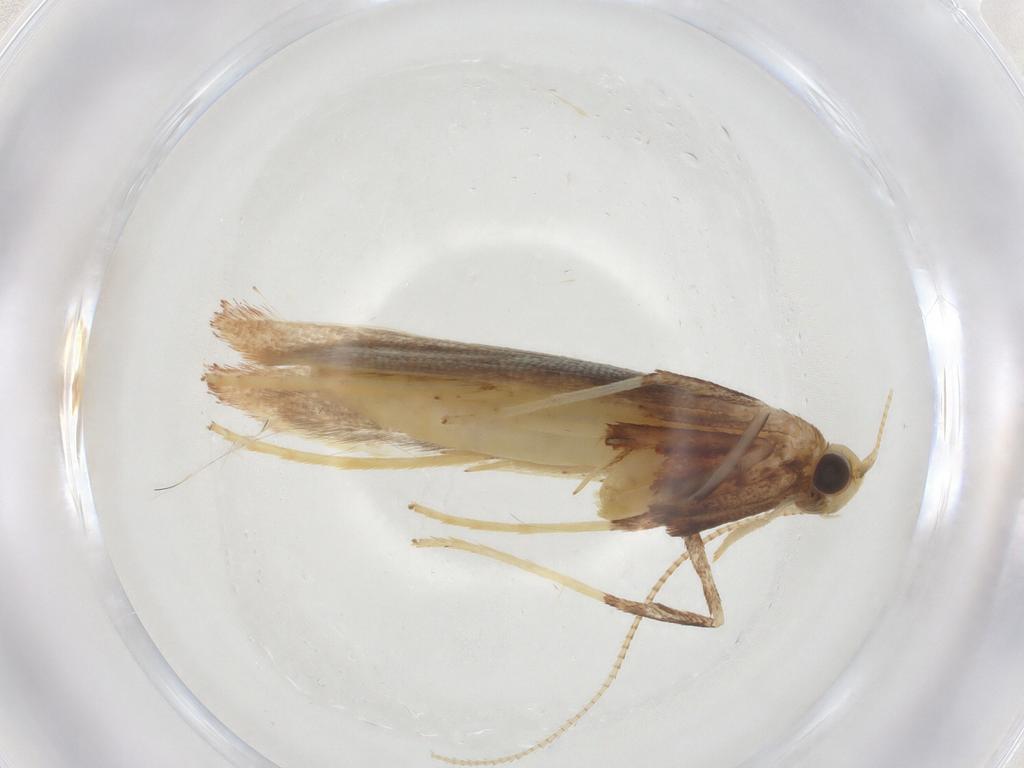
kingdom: Animalia
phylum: Arthropoda
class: Insecta
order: Lepidoptera
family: Gracillariidae
